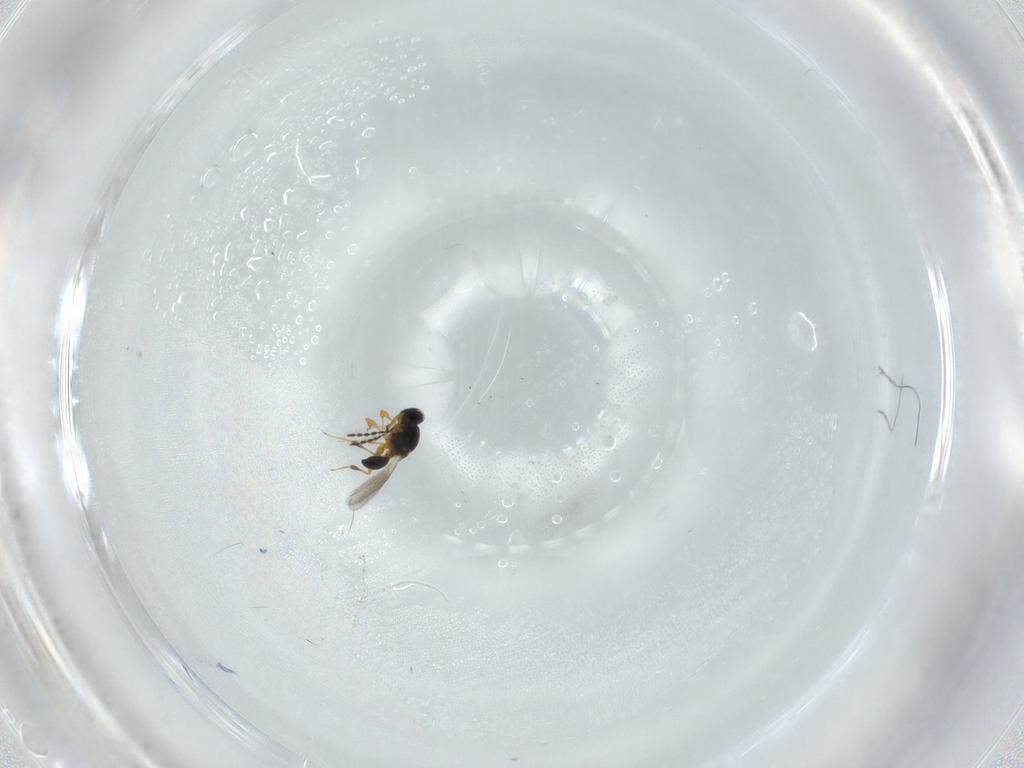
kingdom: Animalia
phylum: Arthropoda
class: Insecta
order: Hymenoptera
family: Platygastridae
